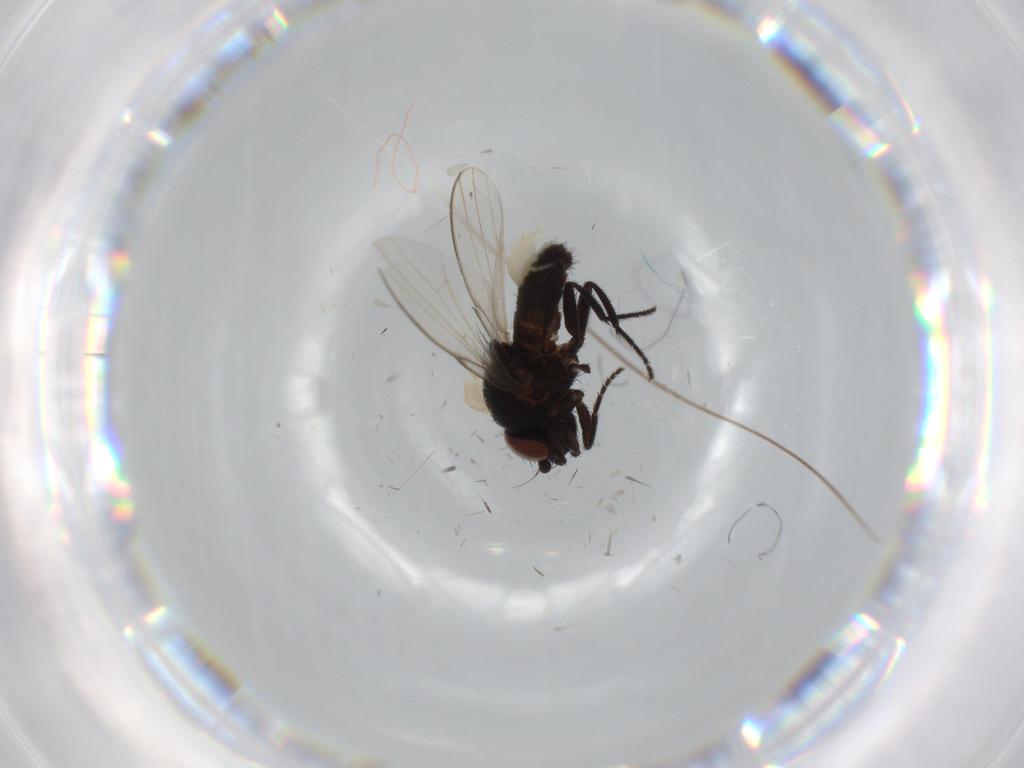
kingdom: Animalia
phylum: Arthropoda
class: Insecta
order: Diptera
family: Milichiidae
